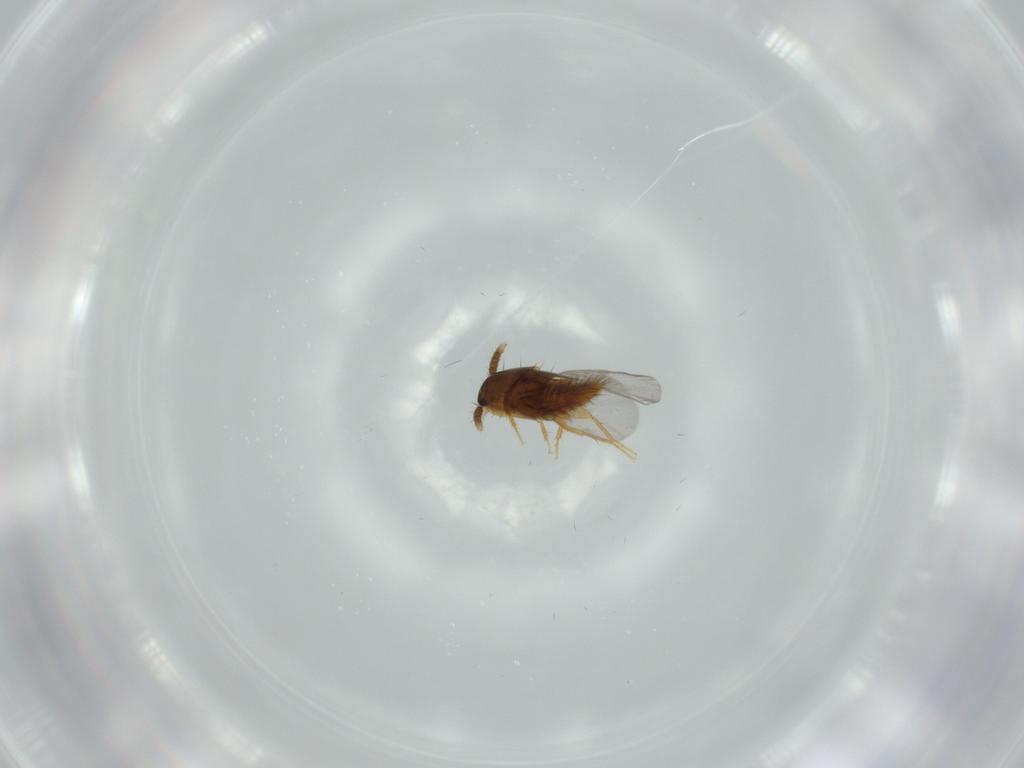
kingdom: Animalia
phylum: Arthropoda
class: Insecta
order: Coleoptera
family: Staphylinidae
